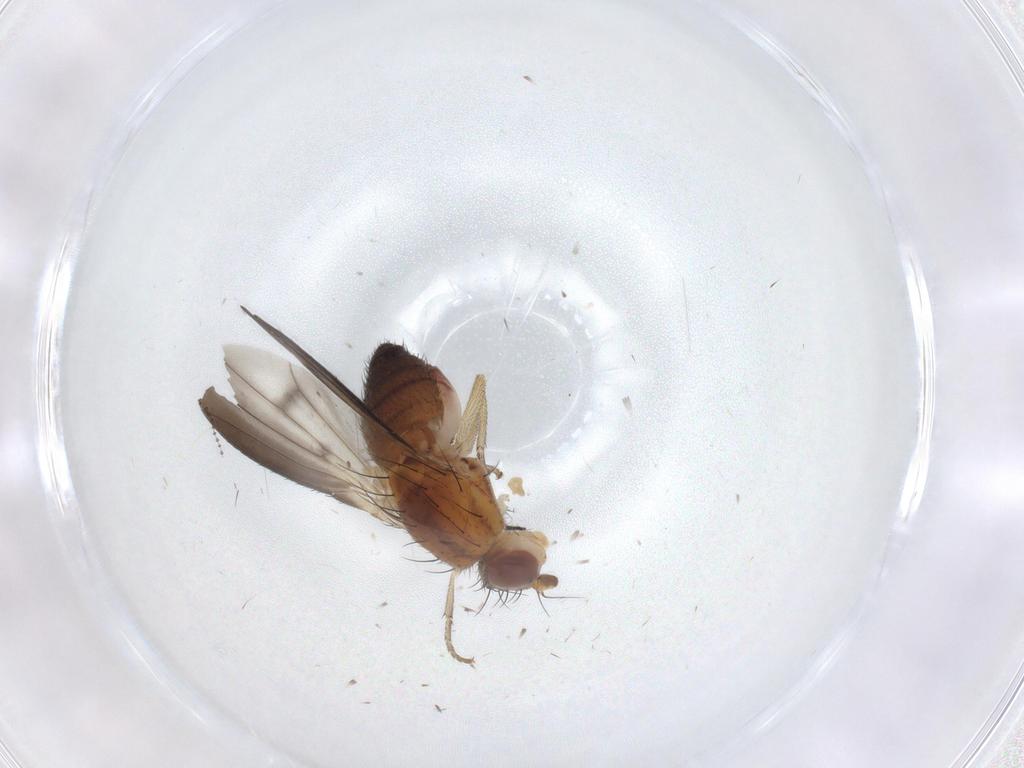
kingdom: Animalia
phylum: Arthropoda
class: Insecta
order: Diptera
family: Heleomyzidae
